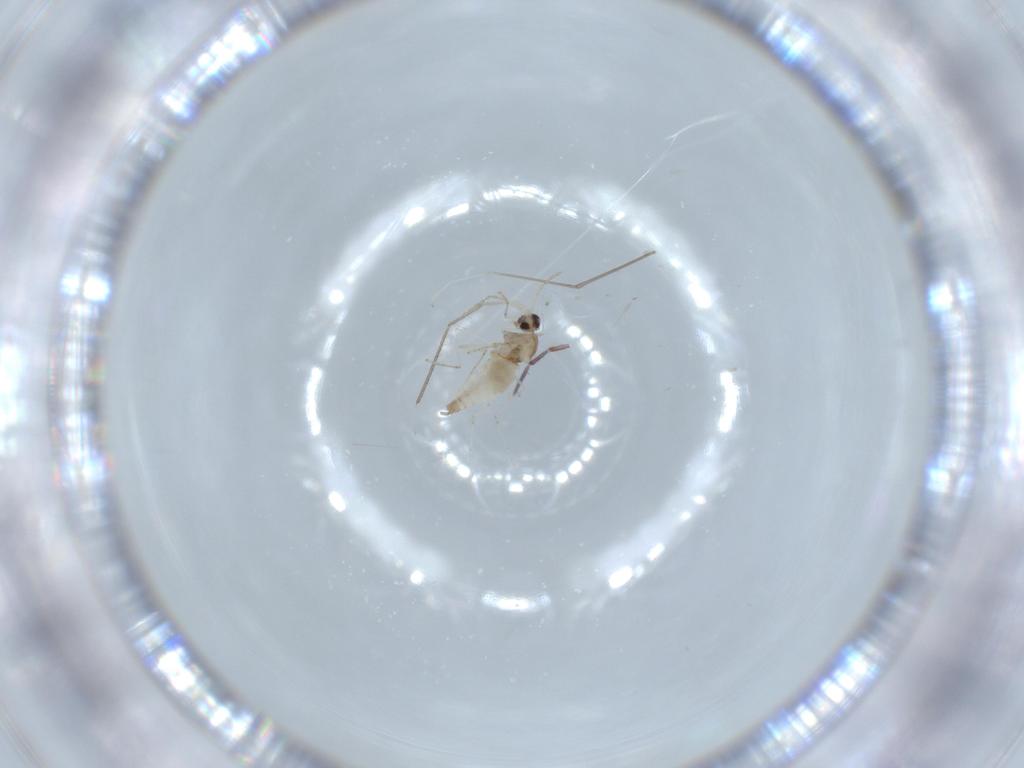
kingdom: Animalia
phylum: Arthropoda
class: Insecta
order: Diptera
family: Cecidomyiidae
